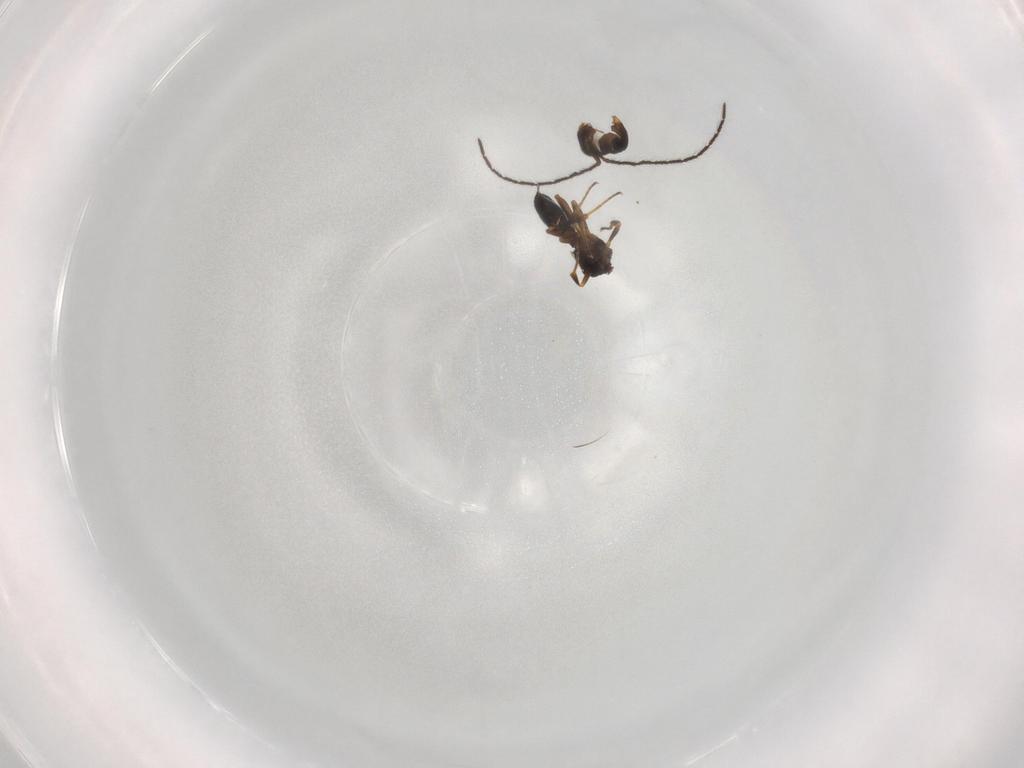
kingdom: Animalia
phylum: Arthropoda
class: Insecta
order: Hymenoptera
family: Scelionidae
